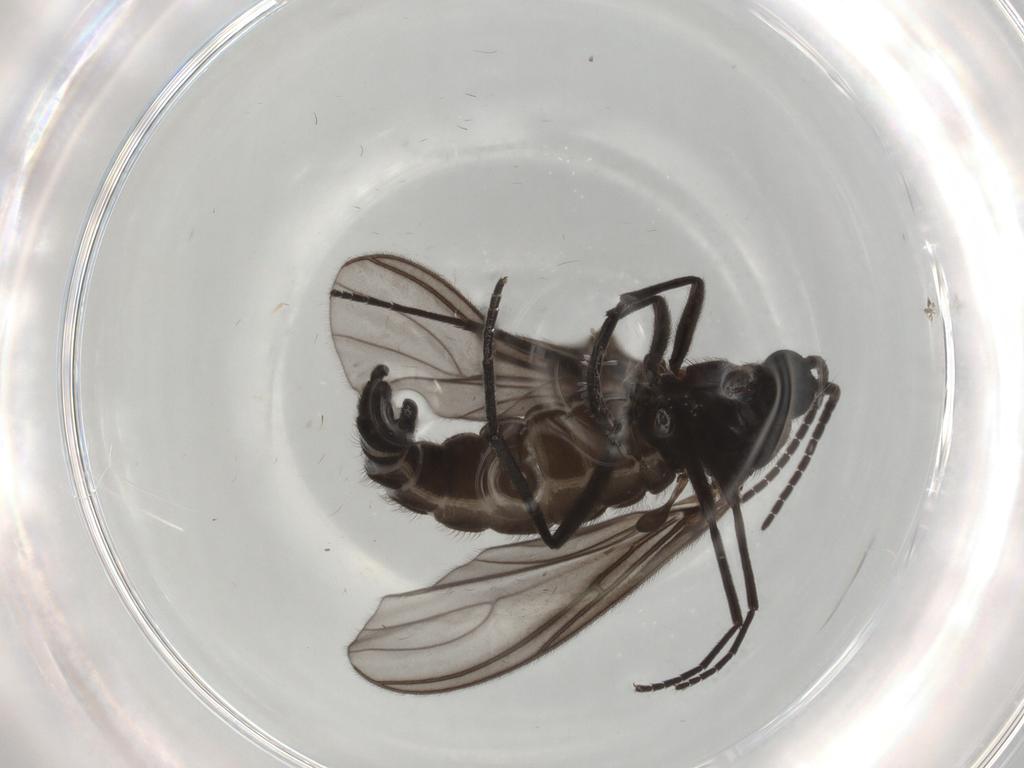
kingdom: Animalia
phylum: Arthropoda
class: Insecta
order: Diptera
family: Sciaridae
